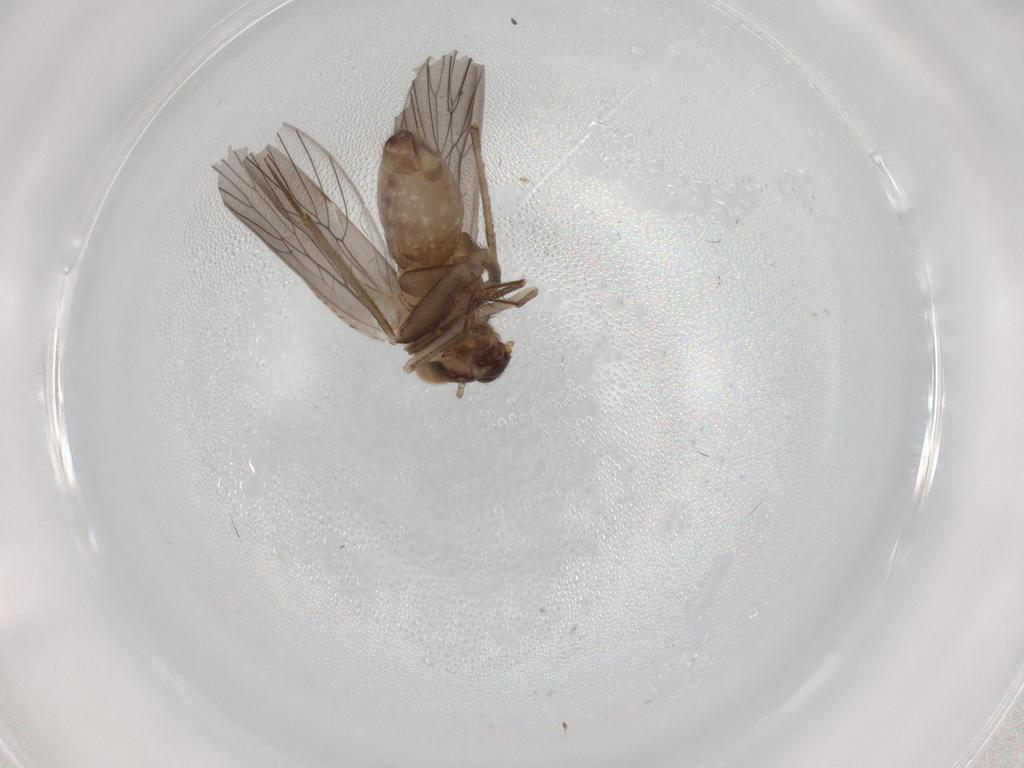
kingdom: Animalia
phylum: Arthropoda
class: Insecta
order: Psocodea
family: Lepidopsocidae
